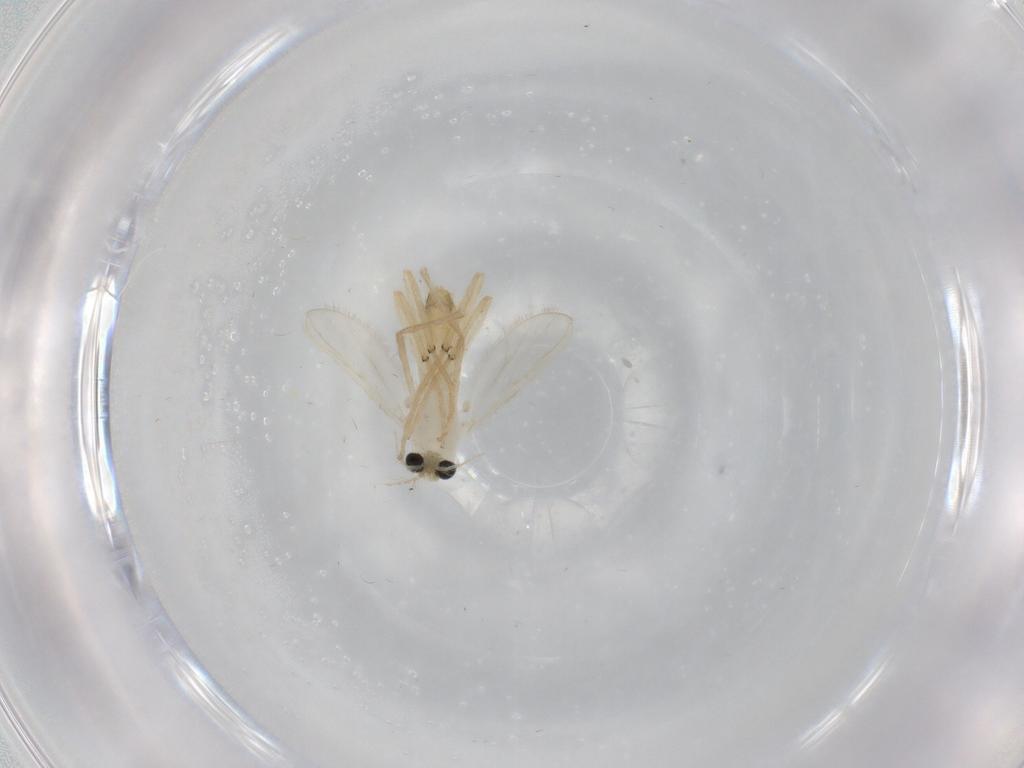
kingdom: Animalia
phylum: Arthropoda
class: Insecta
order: Diptera
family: Chironomidae
